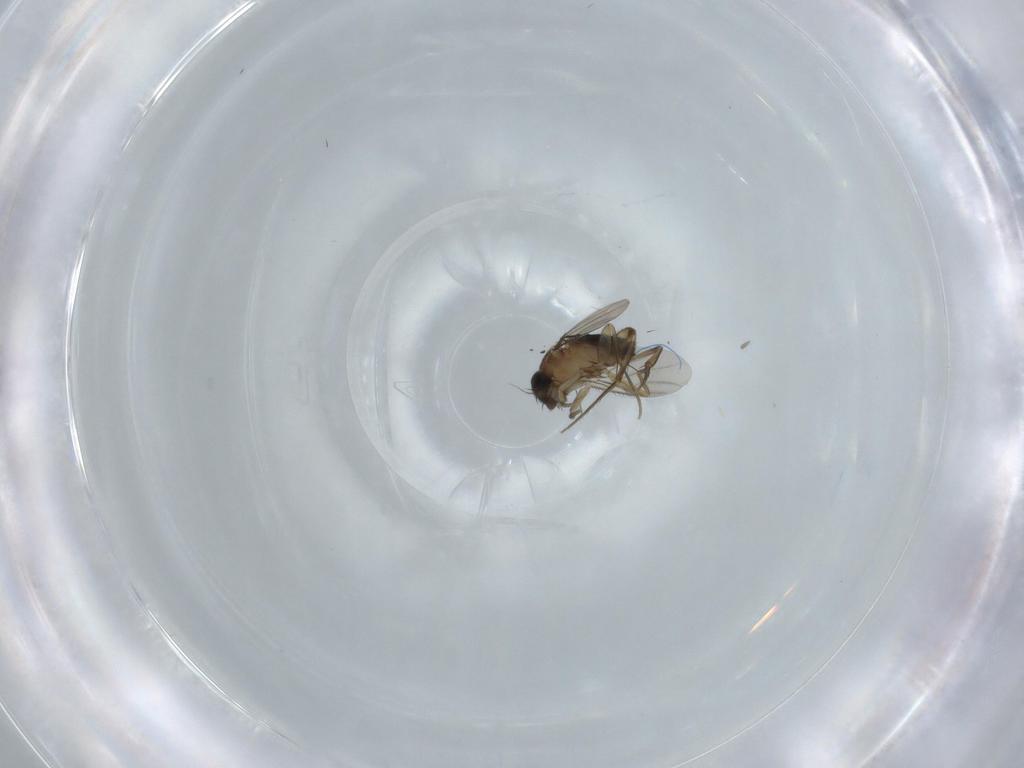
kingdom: Animalia
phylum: Arthropoda
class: Insecta
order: Diptera
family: Phoridae
